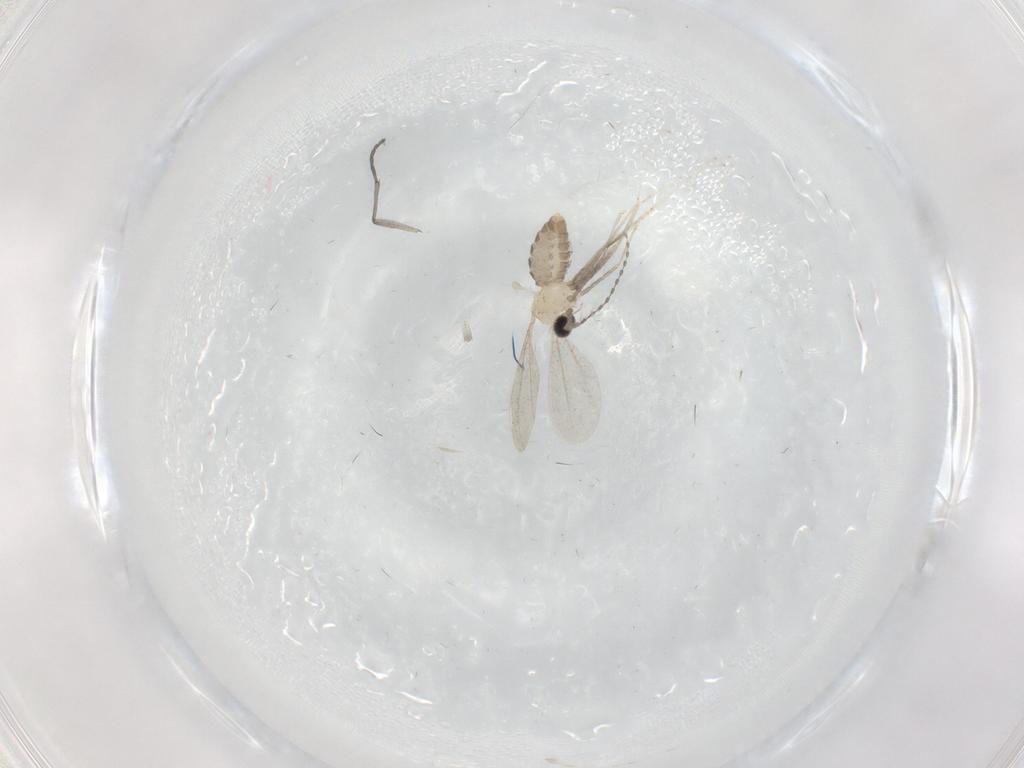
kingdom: Animalia
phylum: Arthropoda
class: Insecta
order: Diptera
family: Cecidomyiidae
